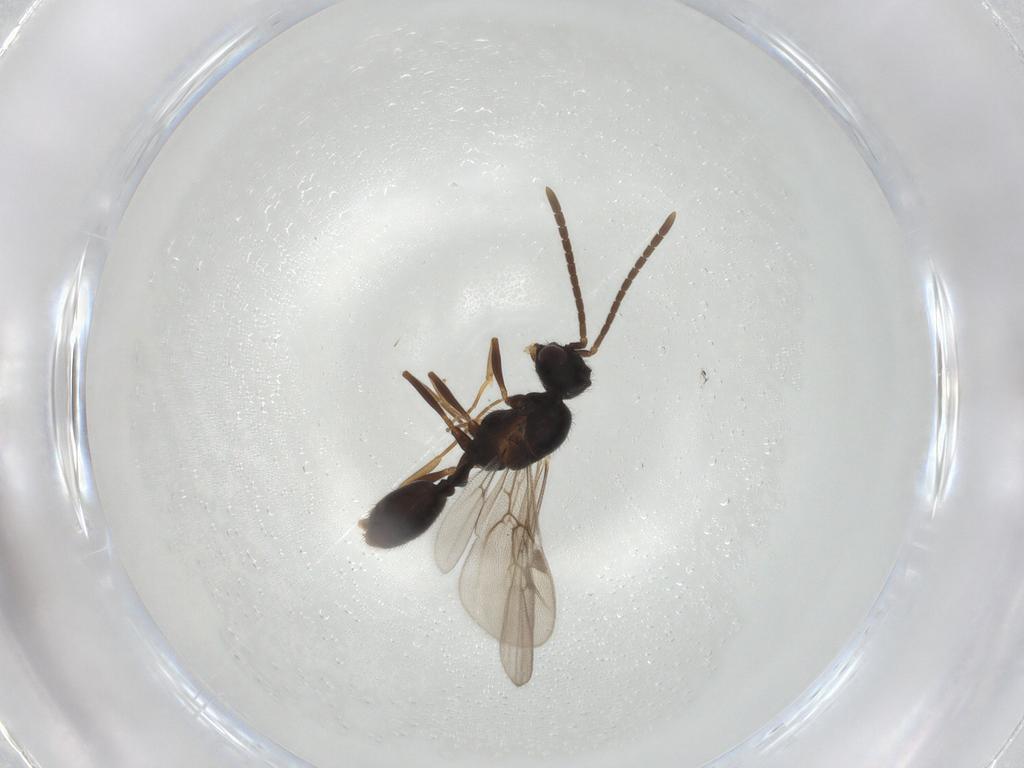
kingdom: Animalia
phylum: Arthropoda
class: Insecta
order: Hymenoptera
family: Formicidae
